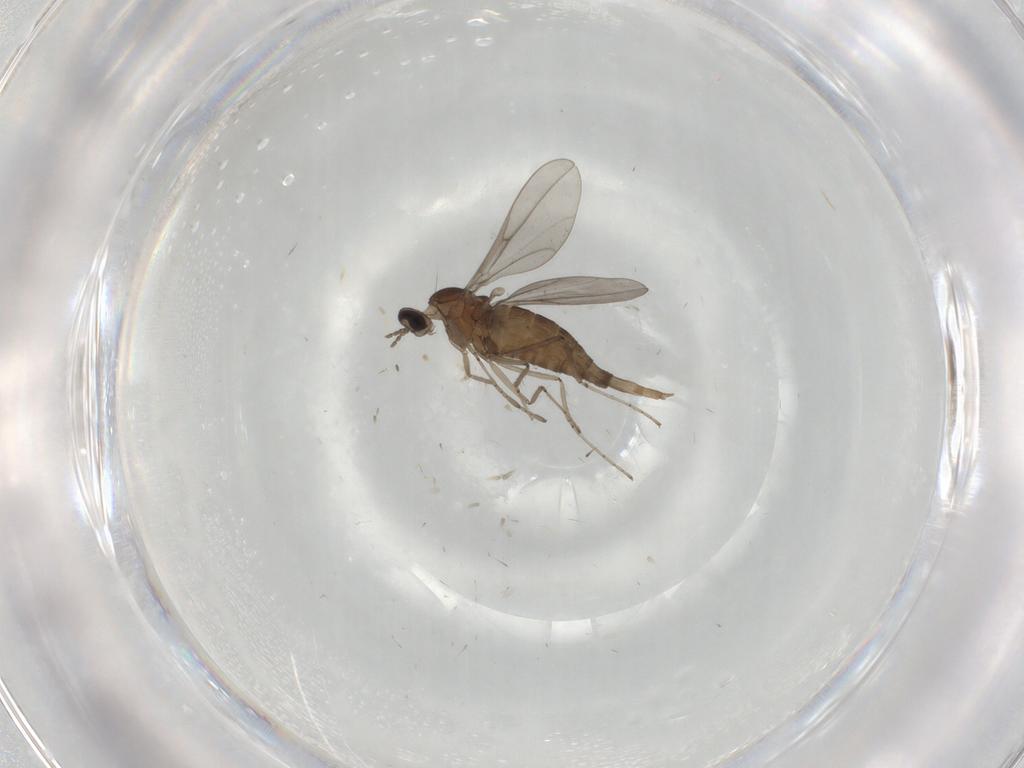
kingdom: Animalia
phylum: Arthropoda
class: Insecta
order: Diptera
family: Cecidomyiidae
